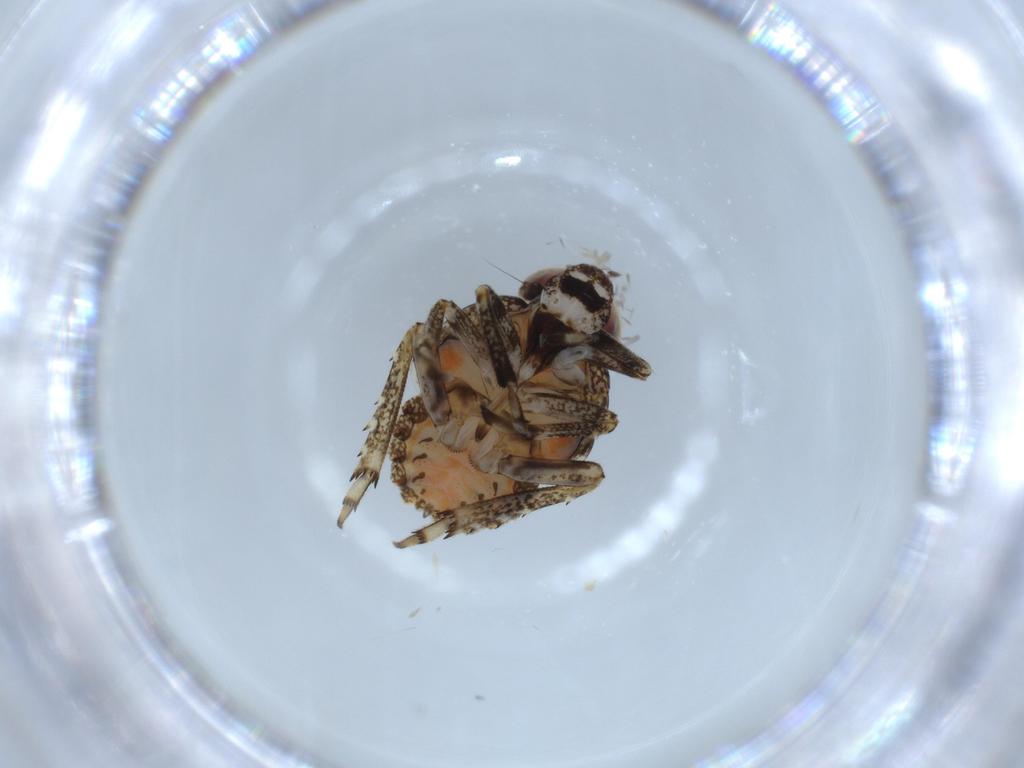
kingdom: Animalia
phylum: Arthropoda
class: Insecta
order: Hemiptera
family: Issidae
